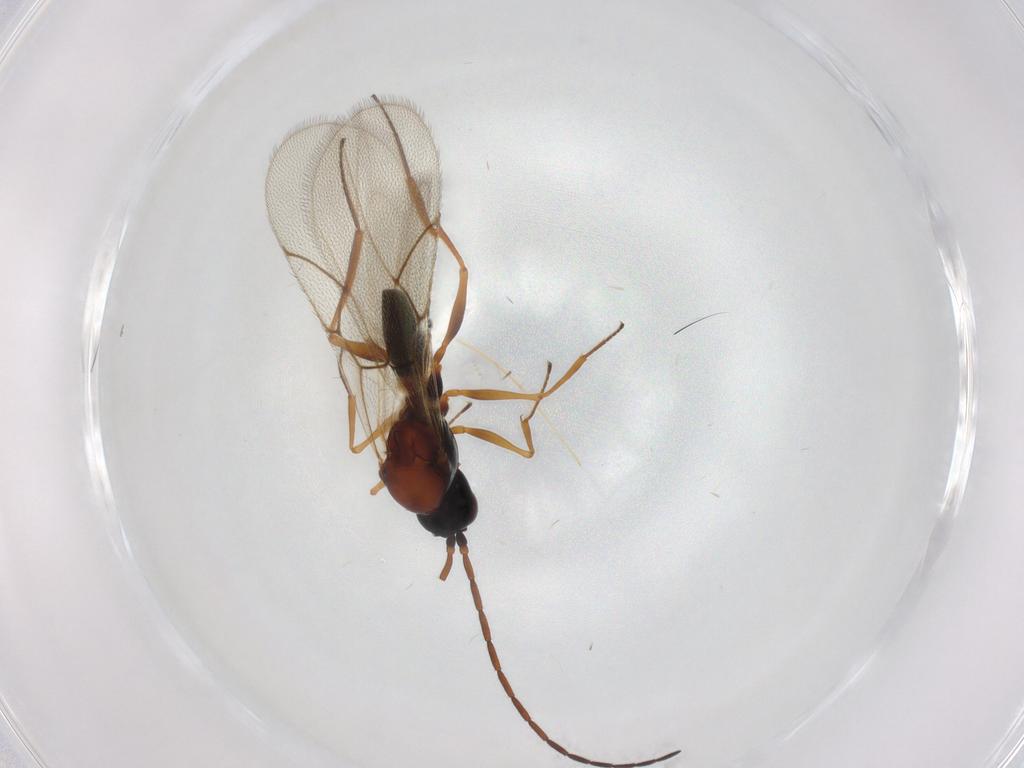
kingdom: Animalia
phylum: Arthropoda
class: Insecta
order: Hymenoptera
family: Figitidae
